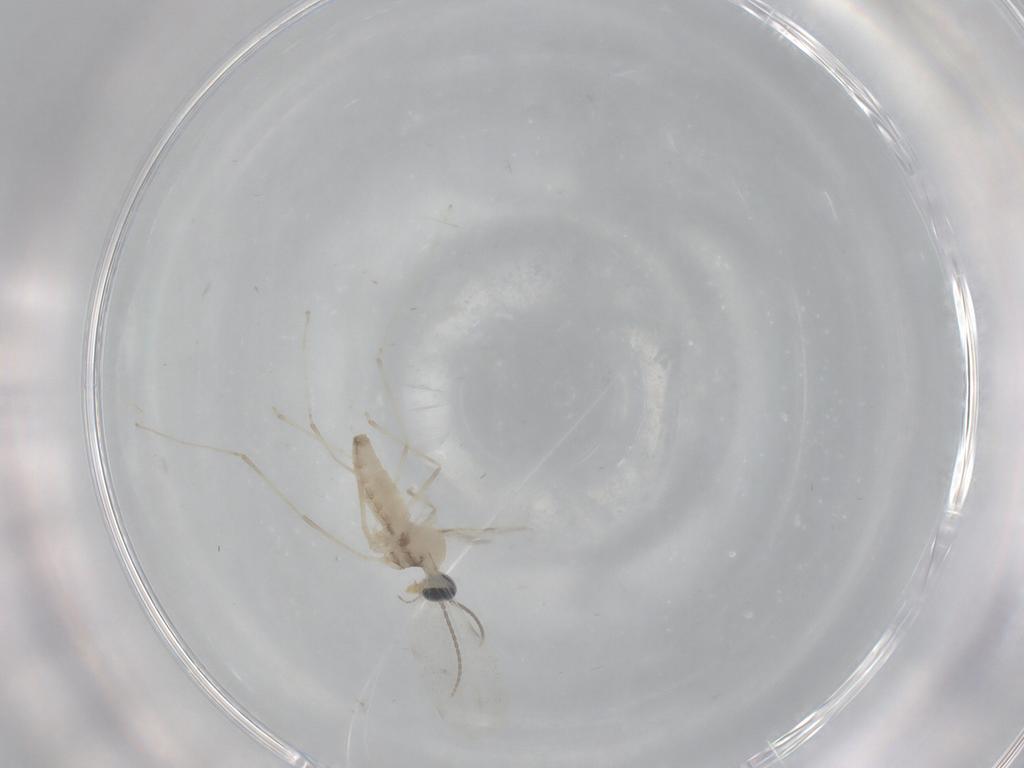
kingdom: Animalia
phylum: Arthropoda
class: Insecta
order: Diptera
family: Cecidomyiidae
